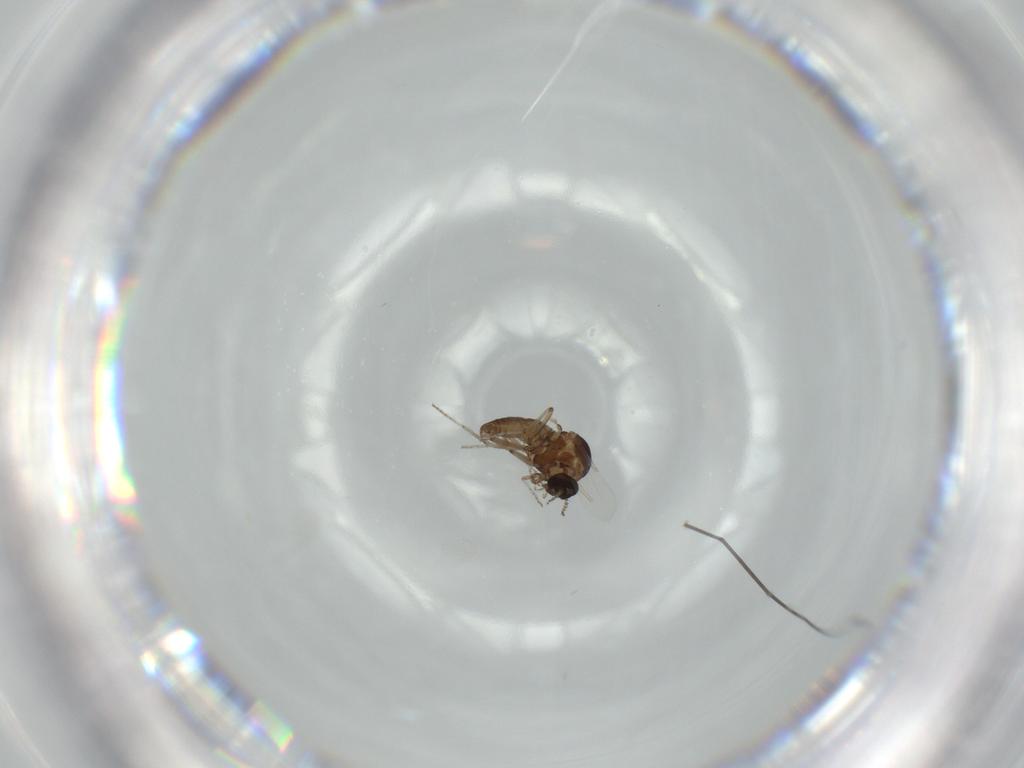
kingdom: Animalia
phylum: Arthropoda
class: Insecta
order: Diptera
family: Ceratopogonidae
